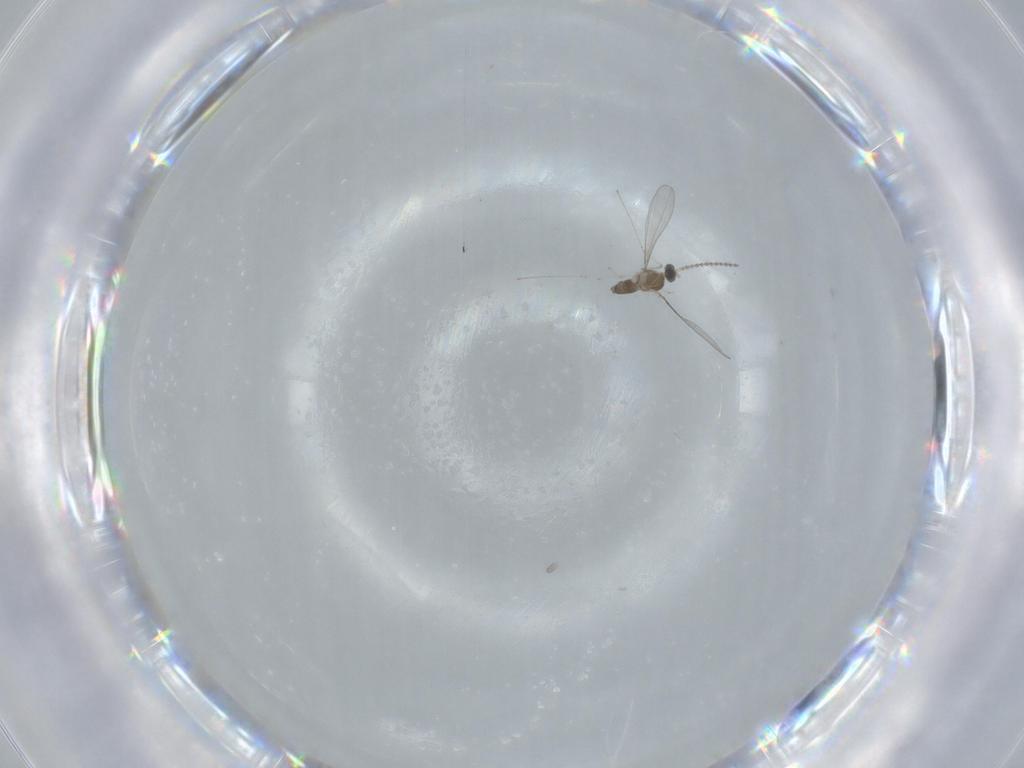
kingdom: Animalia
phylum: Arthropoda
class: Insecta
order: Diptera
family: Cecidomyiidae
